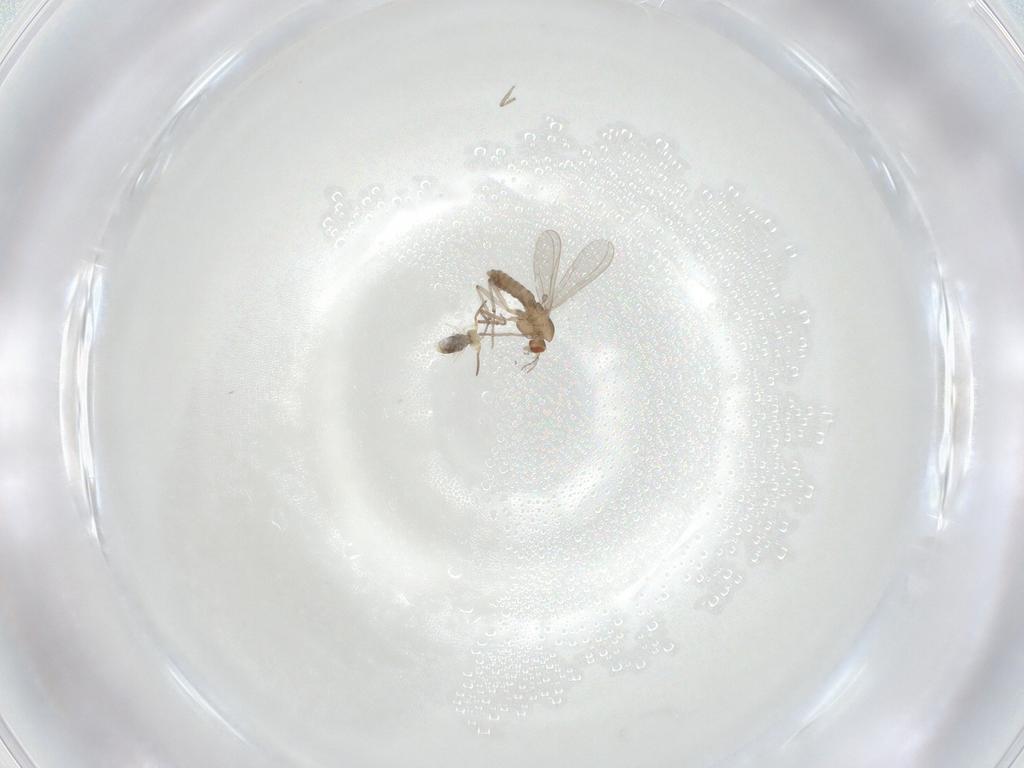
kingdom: Animalia
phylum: Arthropoda
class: Insecta
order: Diptera
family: Chironomidae
